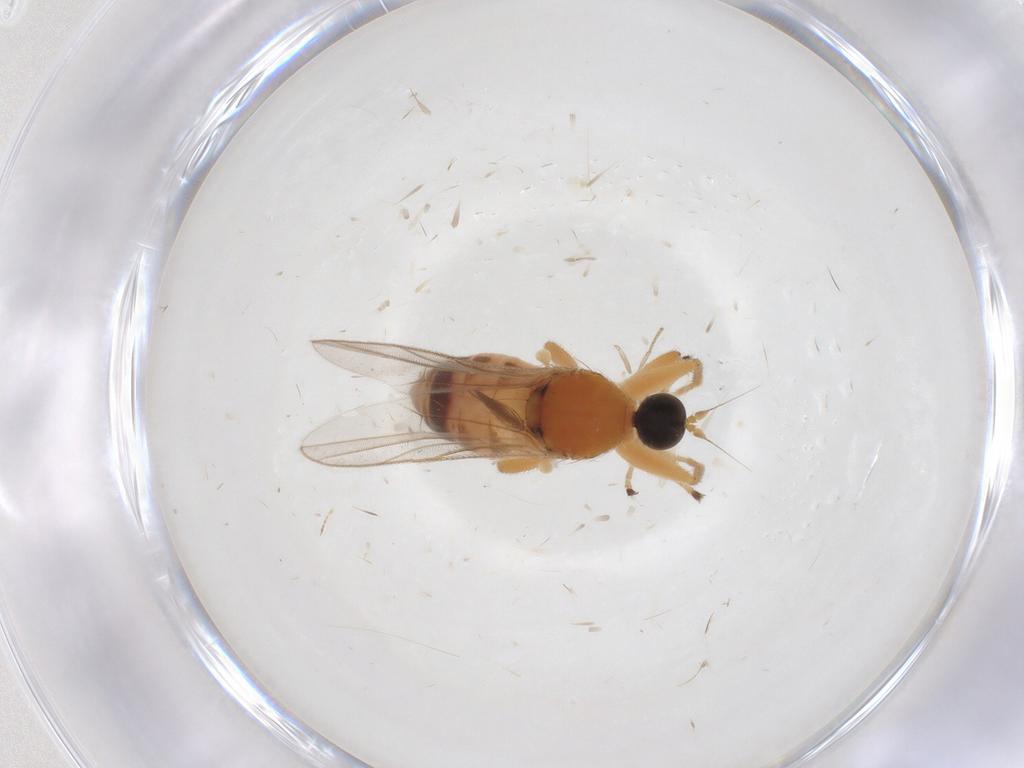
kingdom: Animalia
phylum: Arthropoda
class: Insecta
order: Diptera
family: Hybotidae
